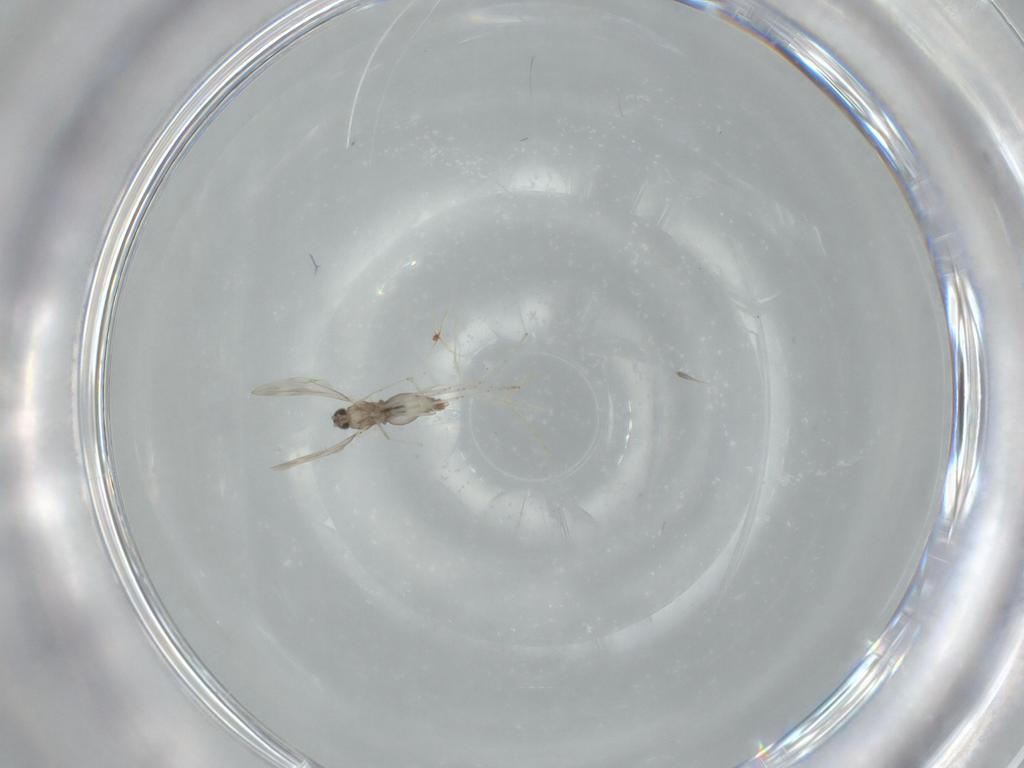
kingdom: Animalia
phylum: Arthropoda
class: Insecta
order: Diptera
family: Cecidomyiidae
